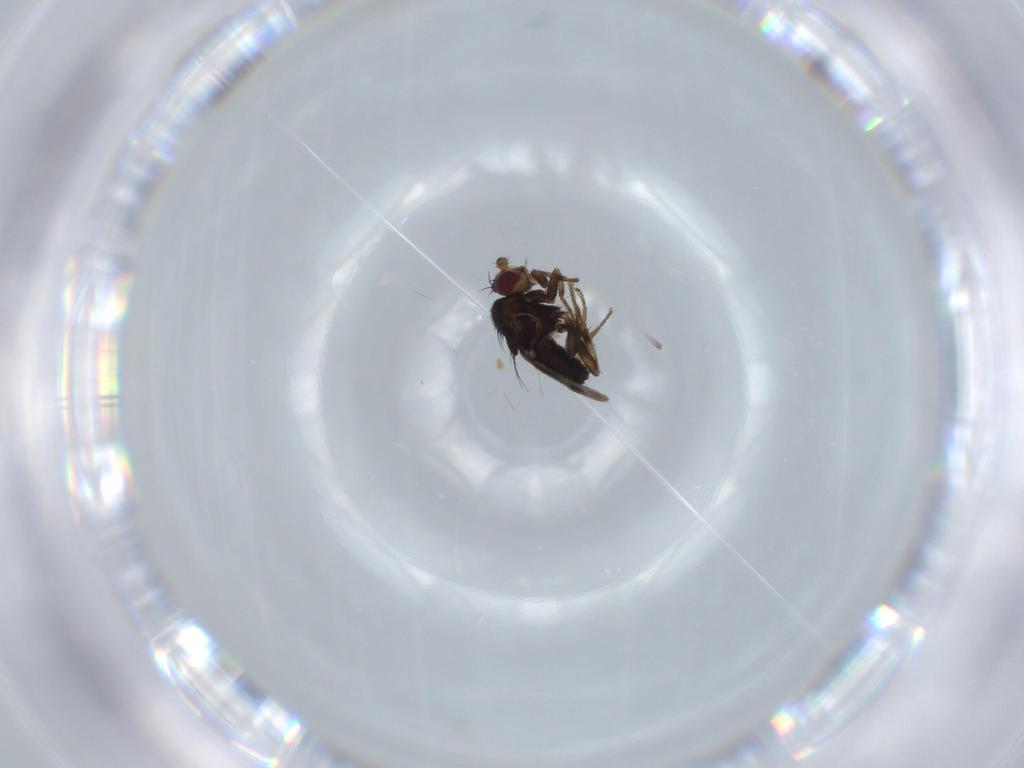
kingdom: Animalia
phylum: Arthropoda
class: Insecta
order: Diptera
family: Sphaeroceridae
